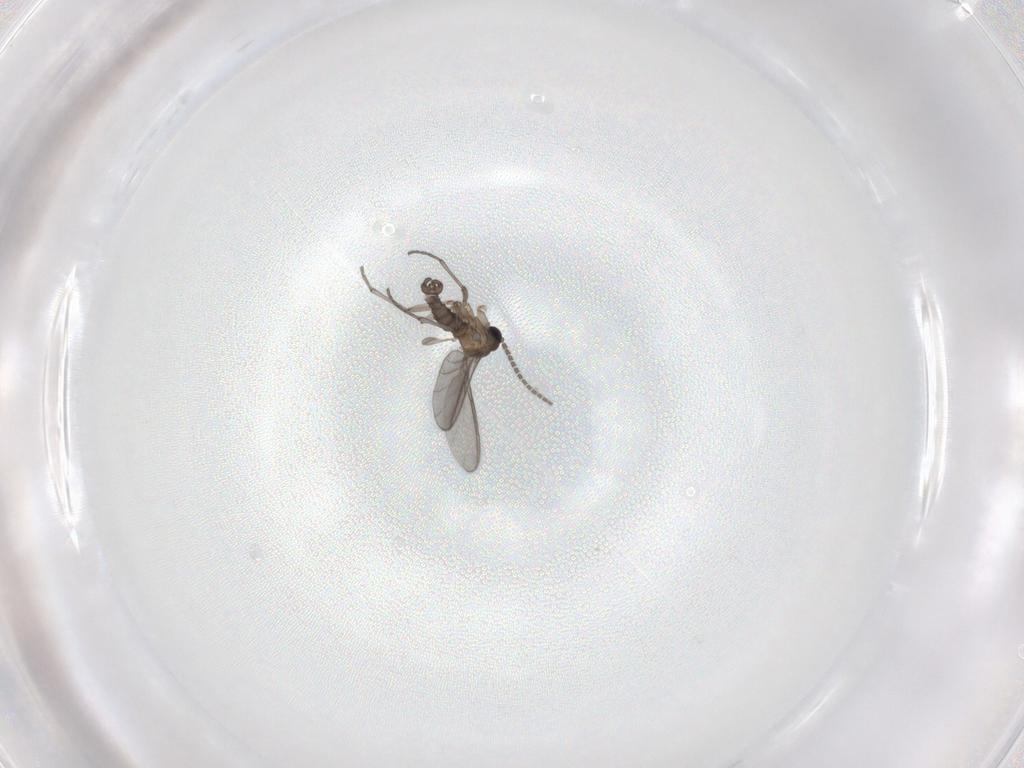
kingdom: Animalia
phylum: Arthropoda
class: Insecta
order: Diptera
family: Sciaridae
